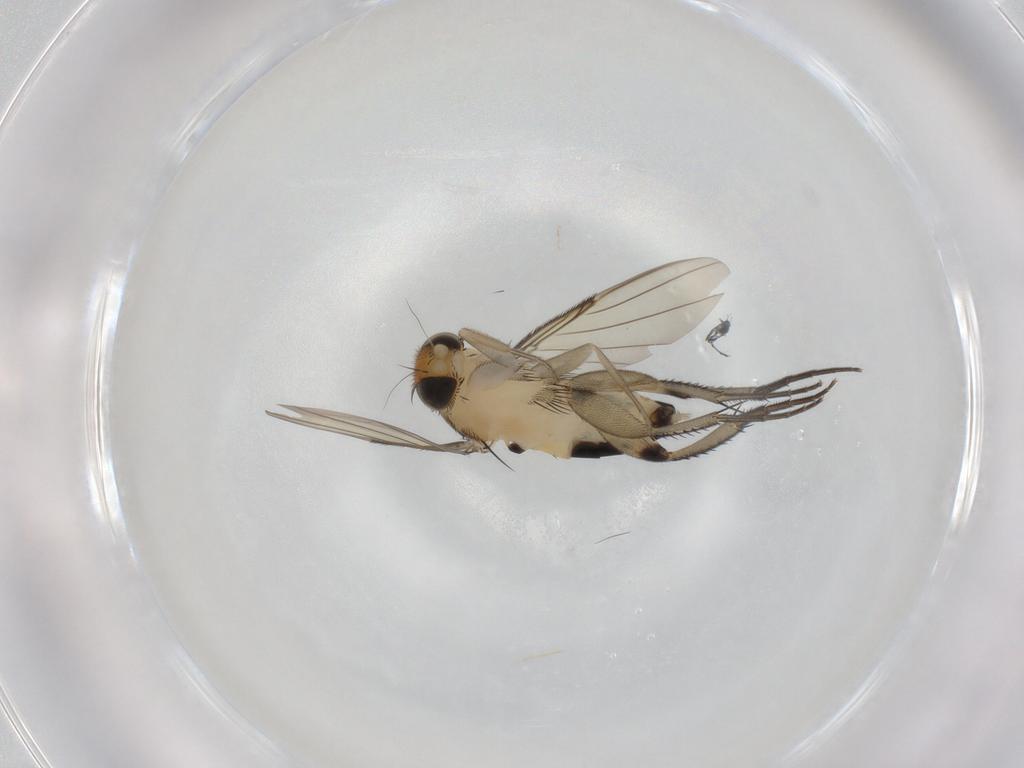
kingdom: Animalia
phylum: Arthropoda
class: Insecta
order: Diptera
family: Phoridae
